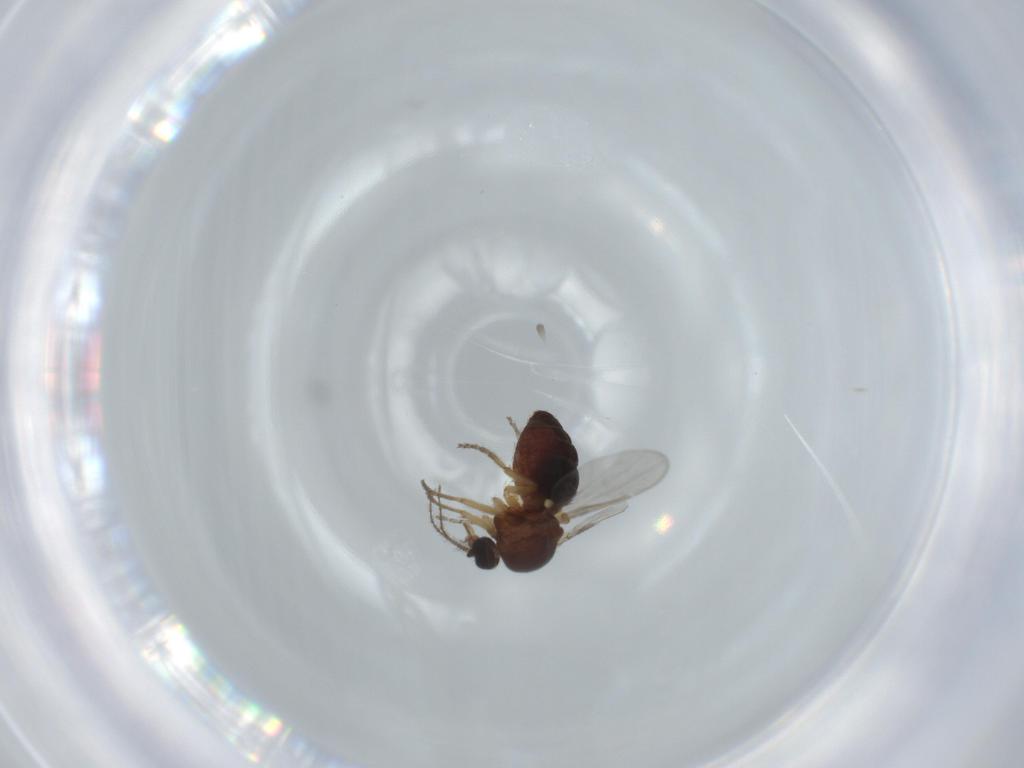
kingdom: Animalia
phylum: Arthropoda
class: Insecta
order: Diptera
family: Ceratopogonidae
